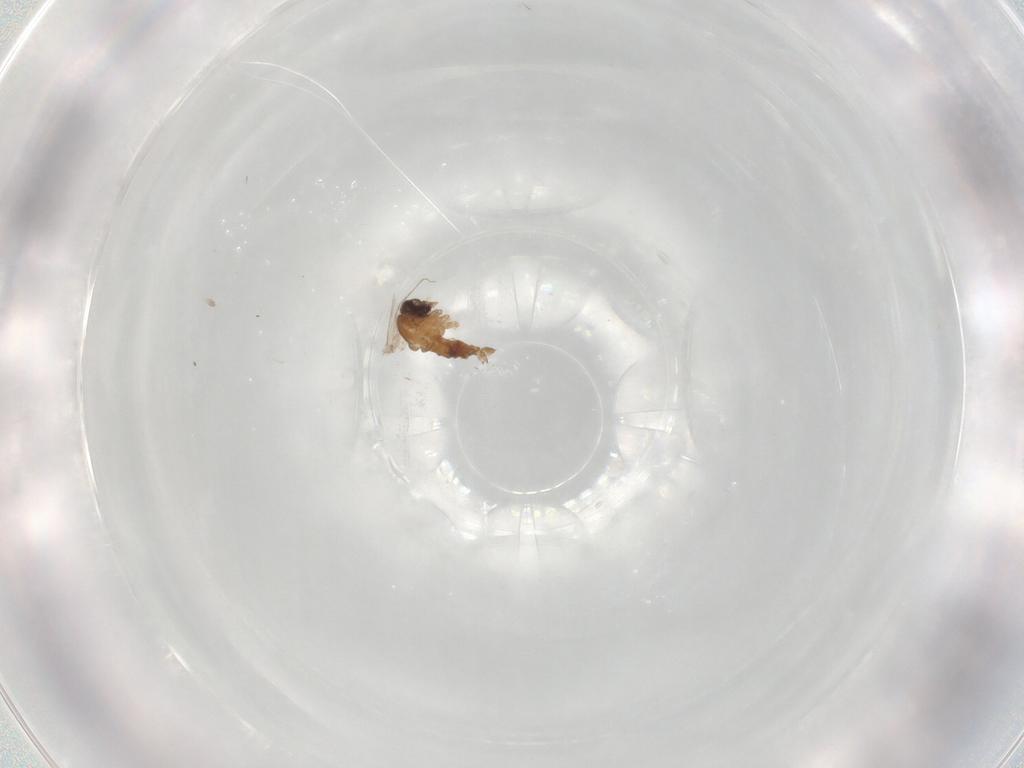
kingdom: Animalia
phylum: Arthropoda
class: Insecta
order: Diptera
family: Psychodidae
